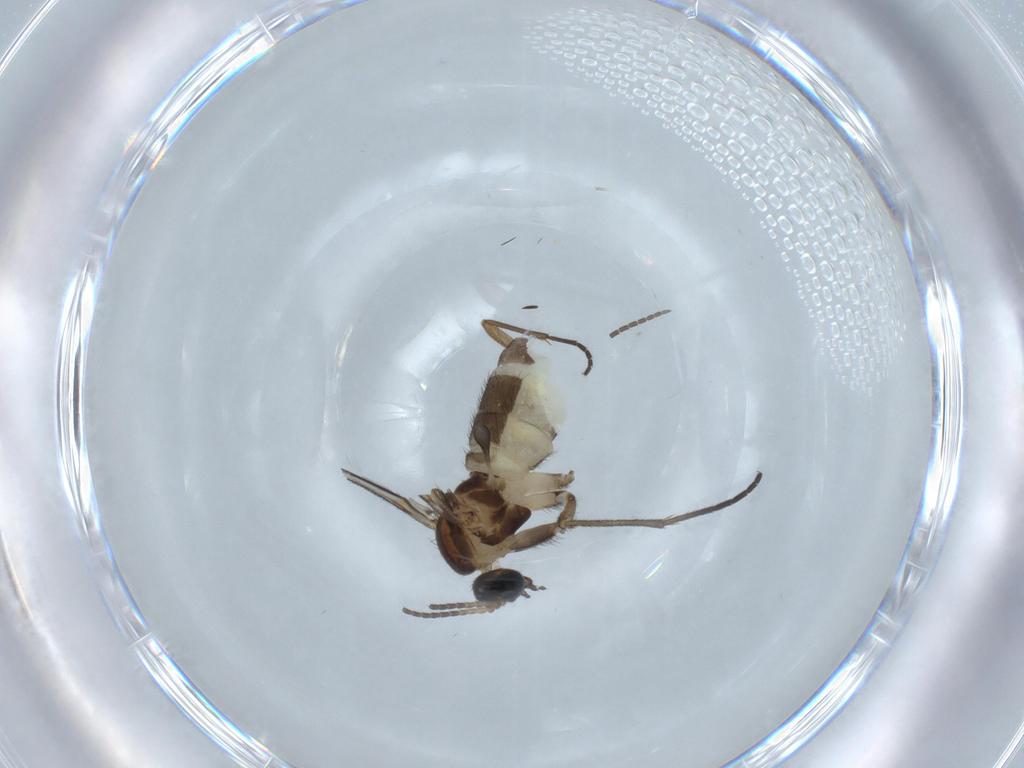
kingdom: Animalia
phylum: Arthropoda
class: Insecta
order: Diptera
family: Sciaridae
